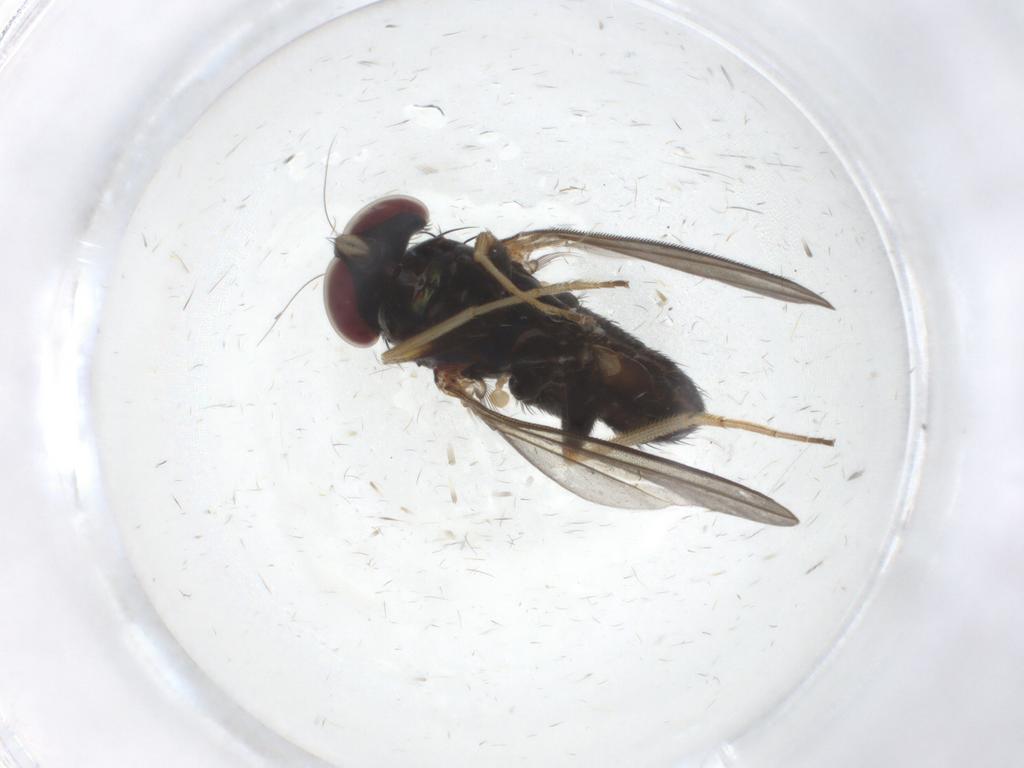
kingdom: Animalia
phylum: Arthropoda
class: Insecta
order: Diptera
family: Dolichopodidae
